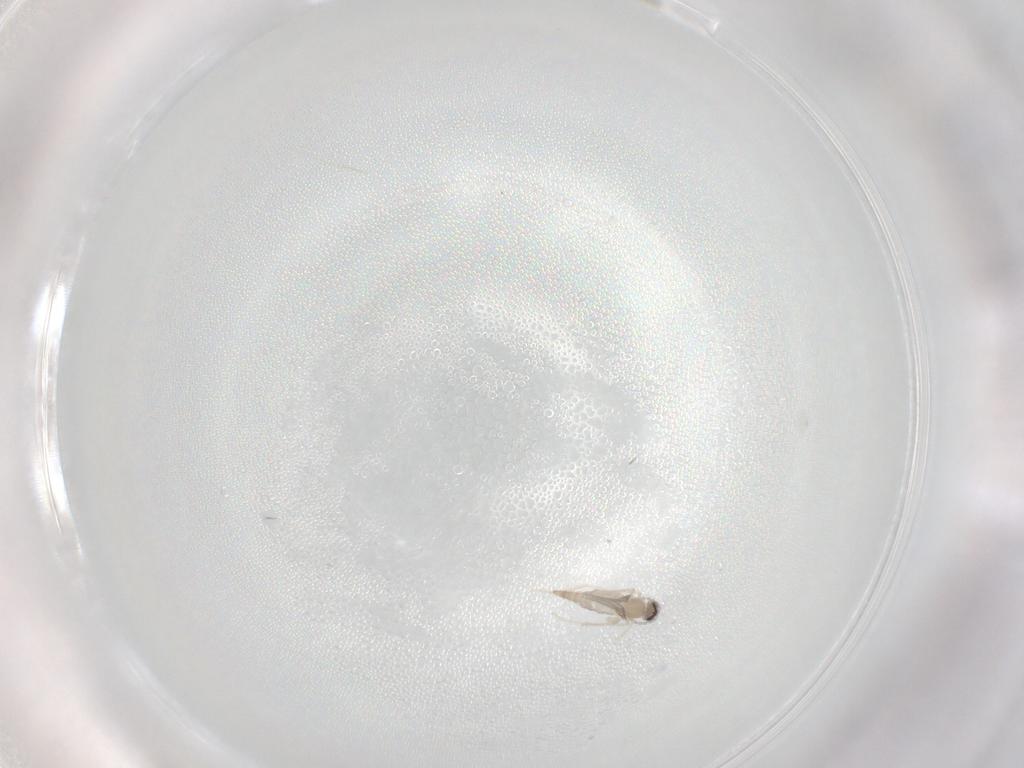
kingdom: Animalia
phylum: Arthropoda
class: Insecta
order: Diptera
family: Cecidomyiidae
